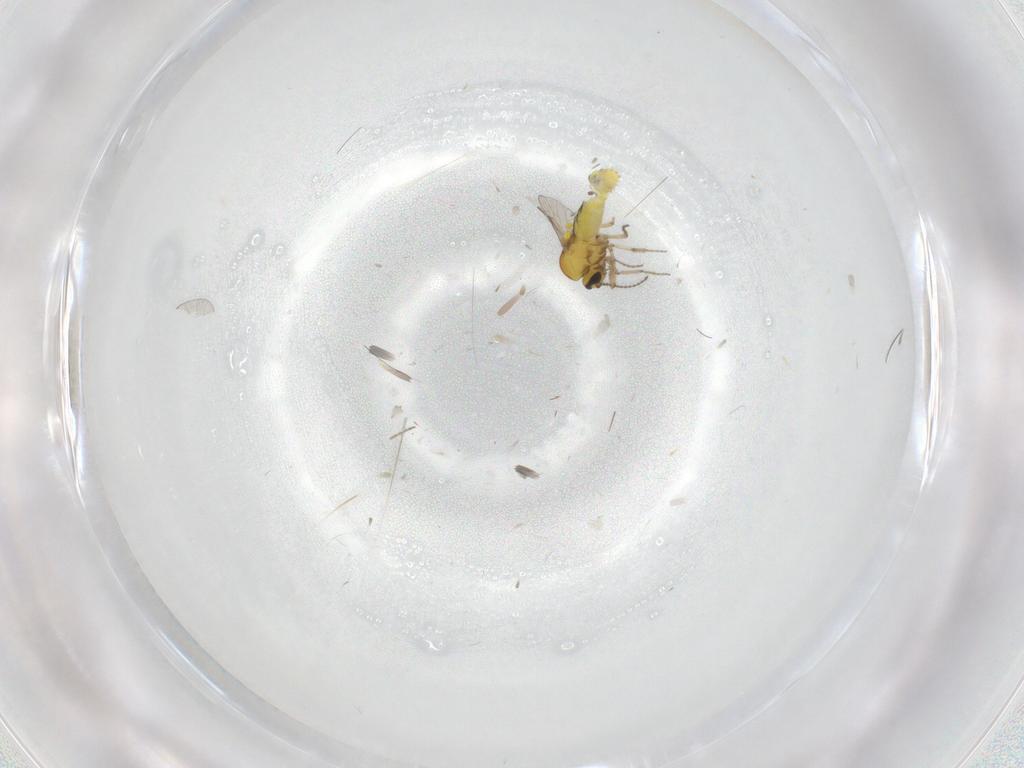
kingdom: Animalia
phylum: Arthropoda
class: Insecta
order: Diptera
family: Ceratopogonidae
